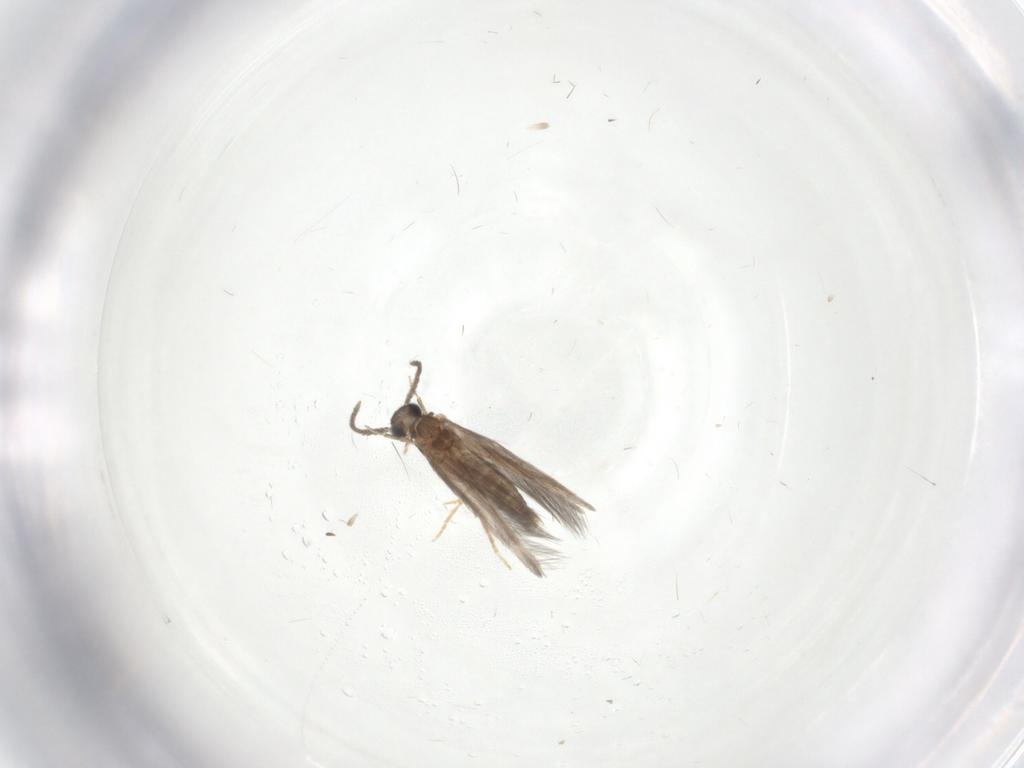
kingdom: Animalia
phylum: Arthropoda
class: Insecta
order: Trichoptera
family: Hydroptilidae
